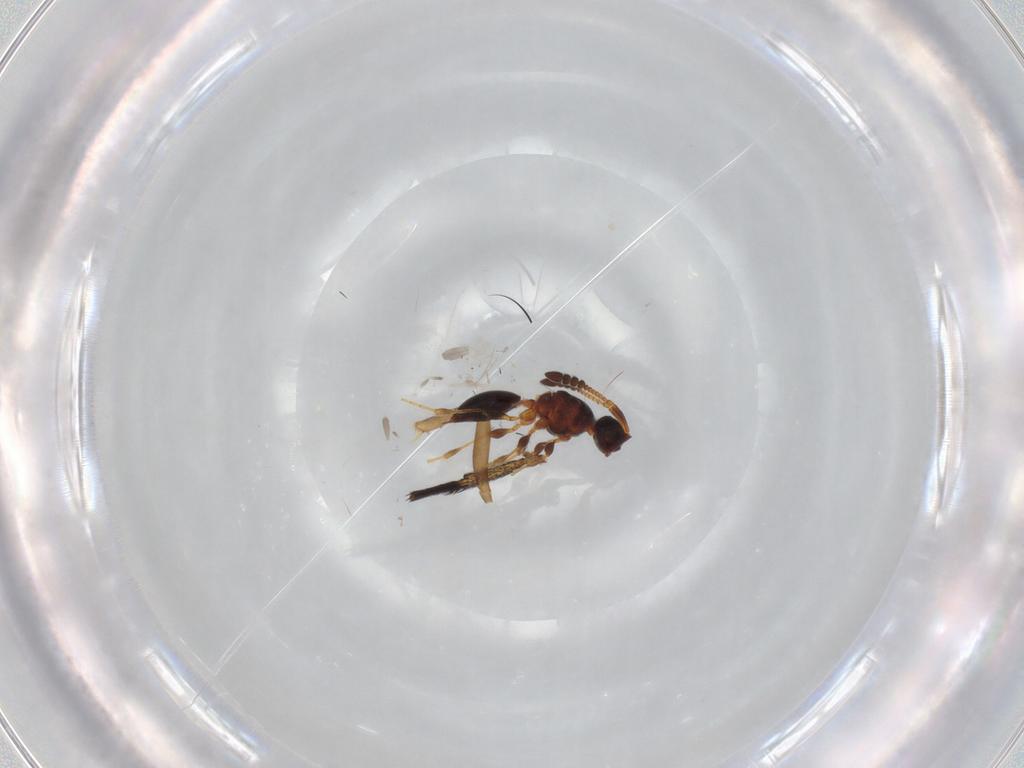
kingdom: Animalia
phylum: Arthropoda
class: Insecta
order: Hymenoptera
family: Diapriidae
